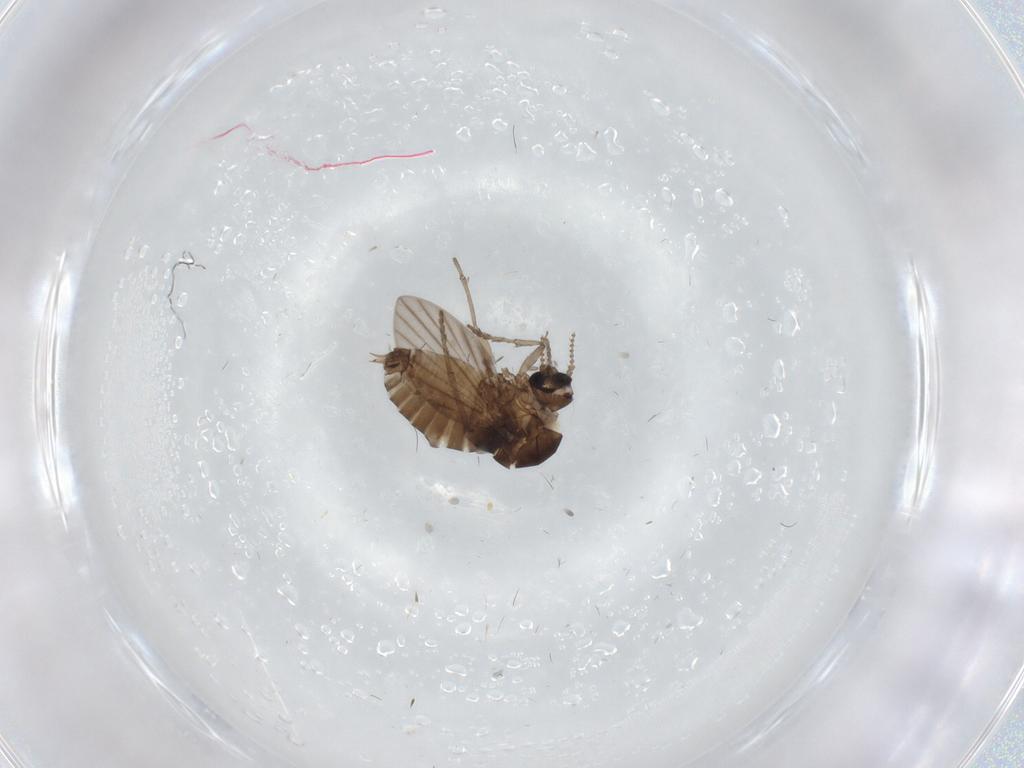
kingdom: Animalia
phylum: Arthropoda
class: Insecta
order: Diptera
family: Psychodidae
